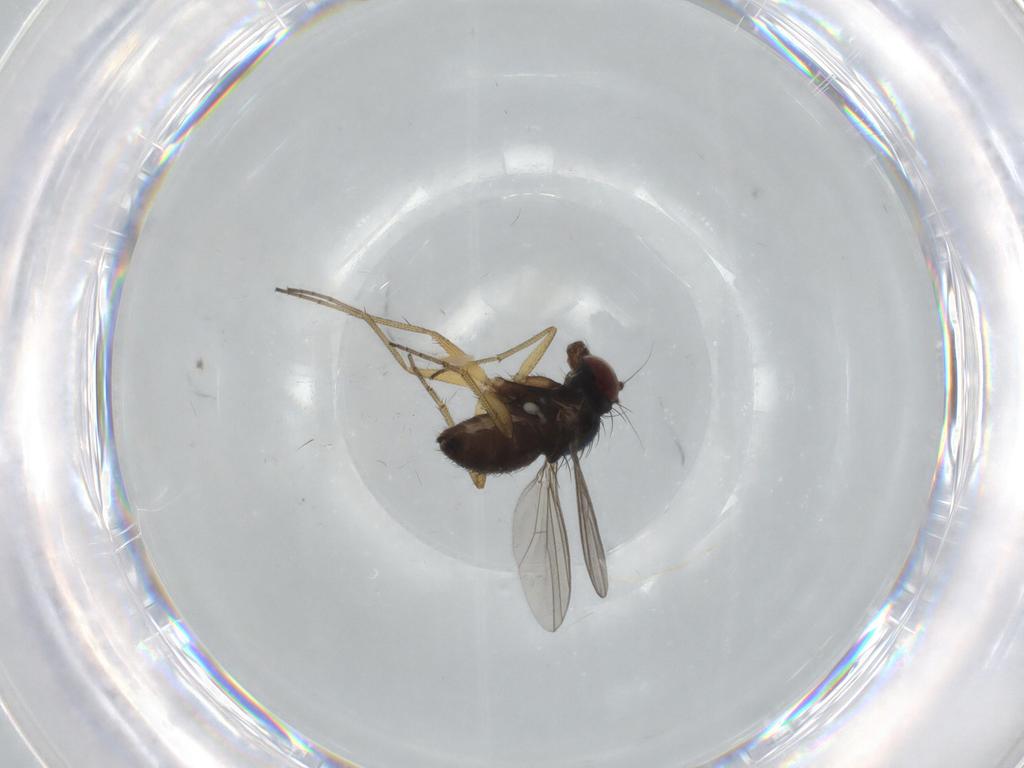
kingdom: Animalia
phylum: Arthropoda
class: Insecta
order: Diptera
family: Dolichopodidae
